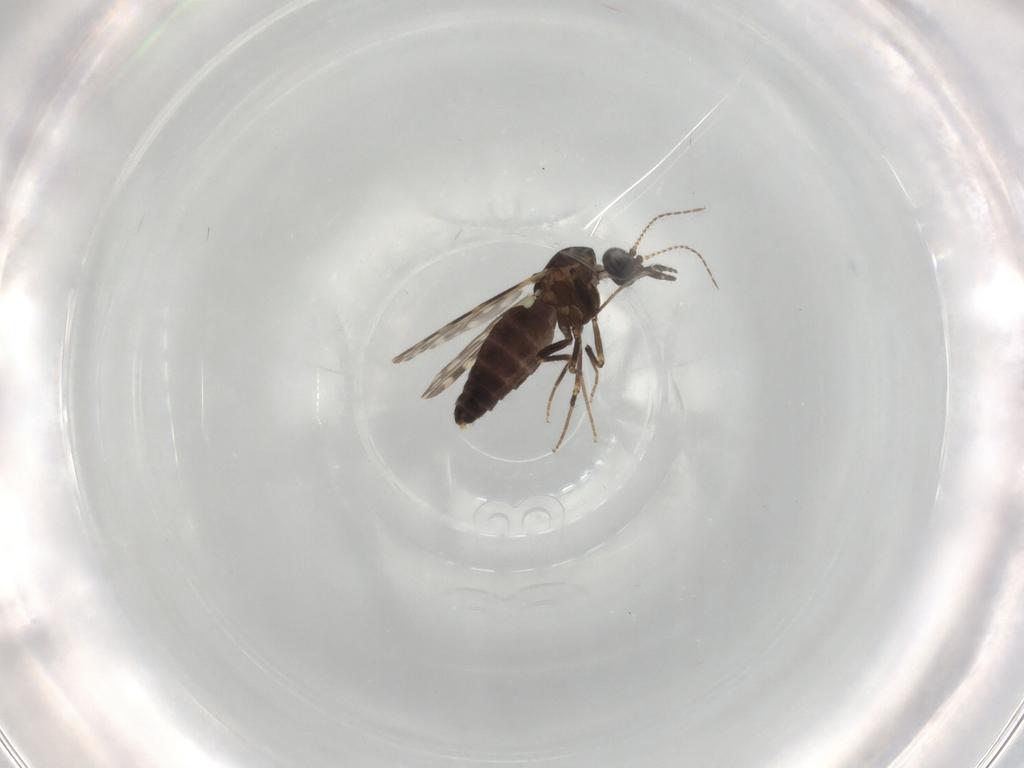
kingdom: Animalia
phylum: Arthropoda
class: Insecta
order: Diptera
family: Ceratopogonidae
